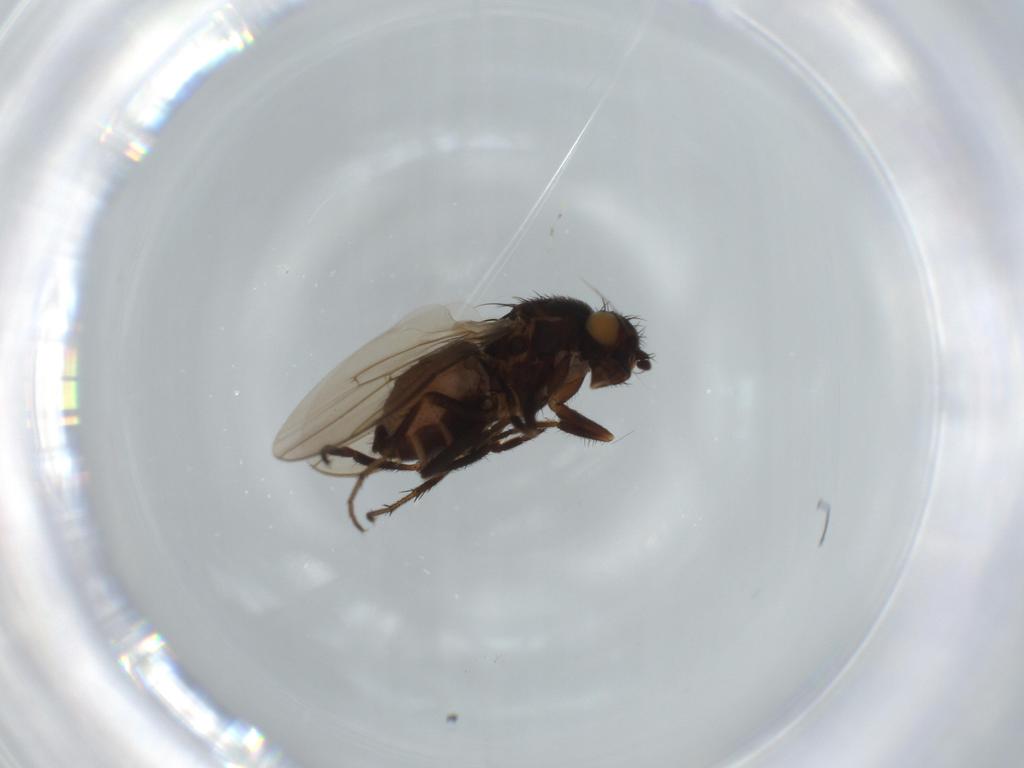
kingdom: Animalia
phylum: Arthropoda
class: Insecta
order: Diptera
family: Sphaeroceridae
